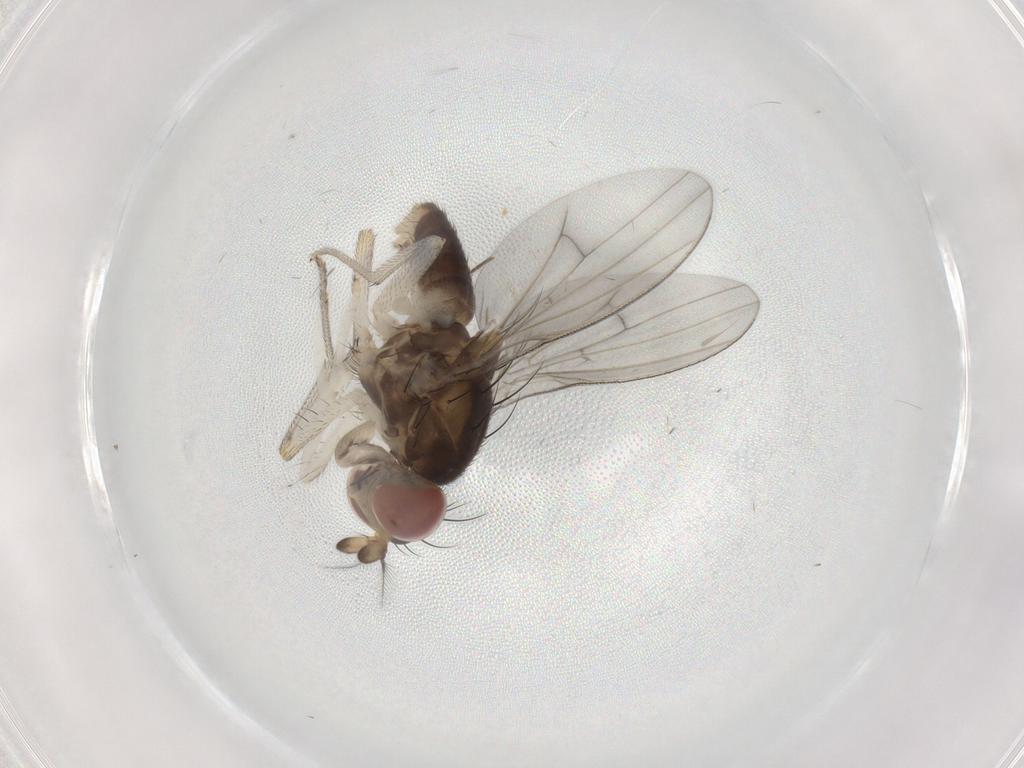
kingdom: Animalia
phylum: Arthropoda
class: Insecta
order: Diptera
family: Lauxaniidae
